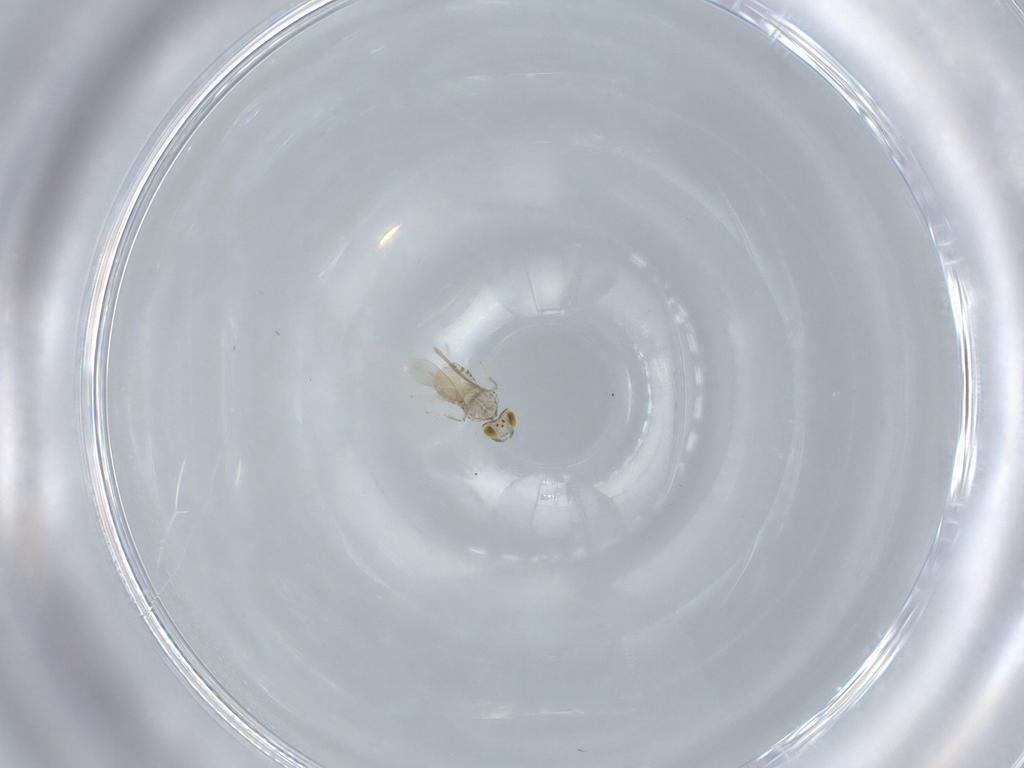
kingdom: Animalia
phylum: Arthropoda
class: Insecta
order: Hymenoptera
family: Aphelinidae
